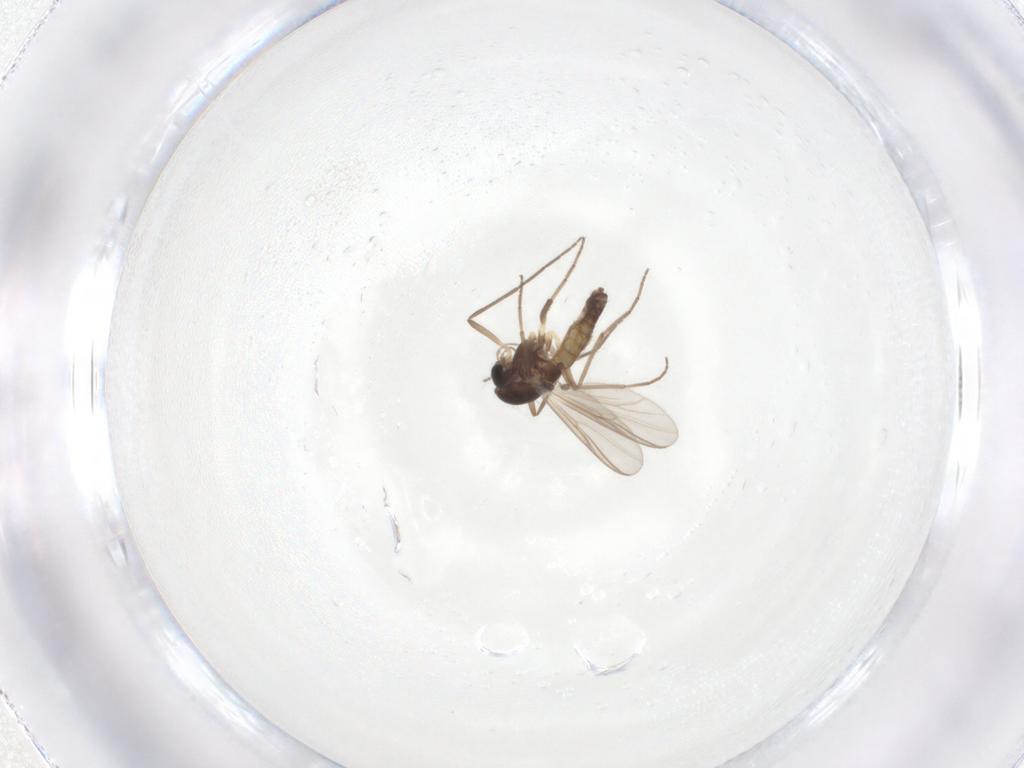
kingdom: Animalia
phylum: Arthropoda
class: Insecta
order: Diptera
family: Chironomidae
